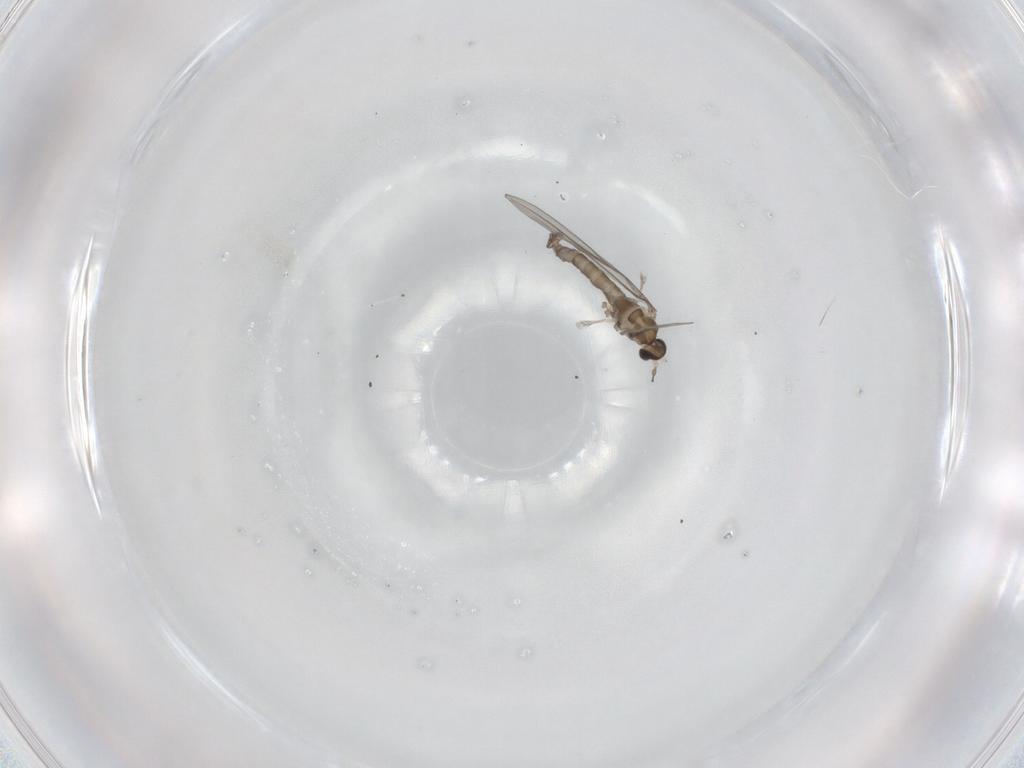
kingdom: Animalia
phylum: Arthropoda
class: Insecta
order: Diptera
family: Cecidomyiidae
